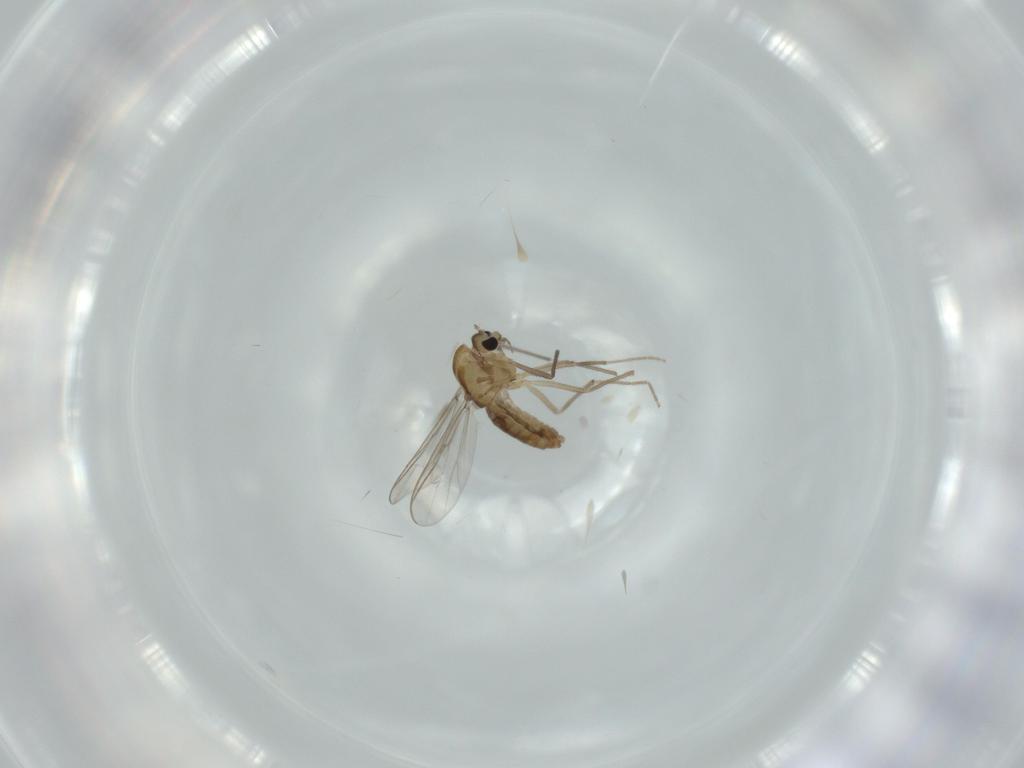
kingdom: Animalia
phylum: Arthropoda
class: Insecta
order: Diptera
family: Chironomidae
